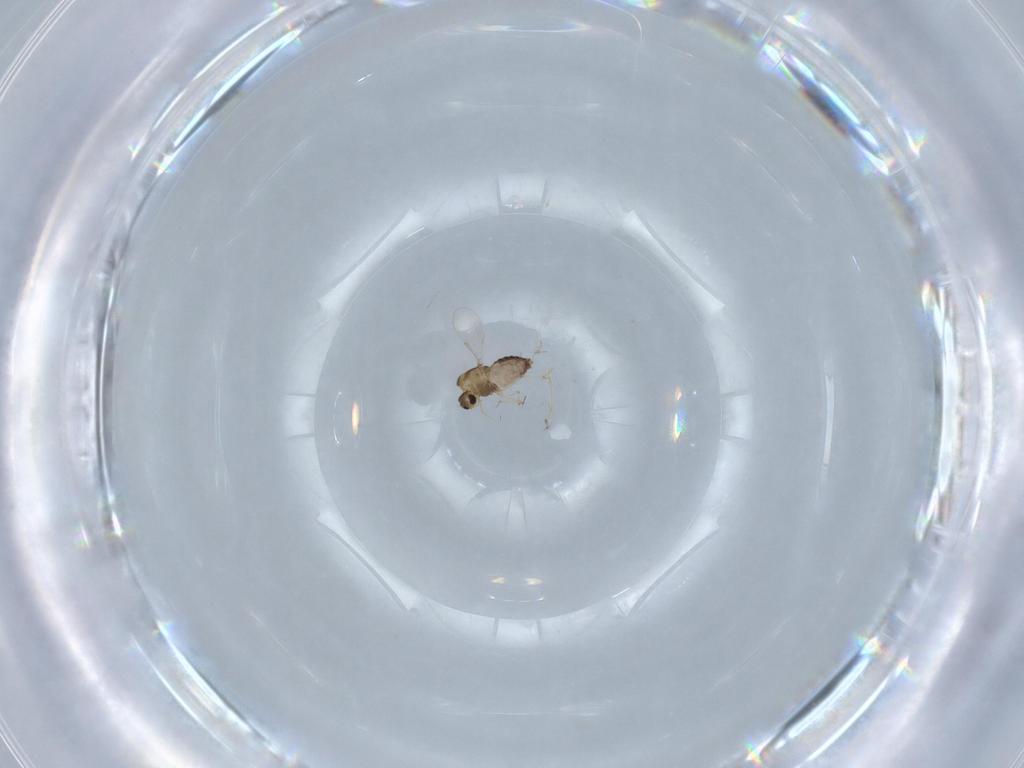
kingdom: Animalia
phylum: Arthropoda
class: Insecta
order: Diptera
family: Chironomidae
